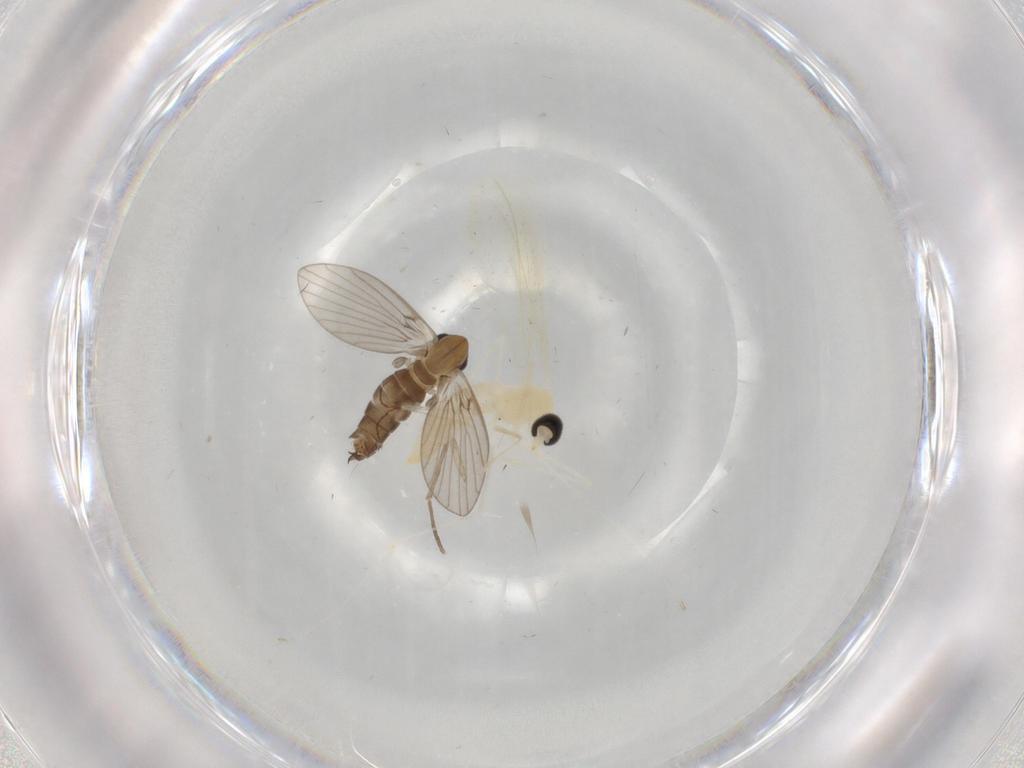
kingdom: Animalia
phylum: Arthropoda
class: Insecta
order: Diptera
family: Cecidomyiidae
